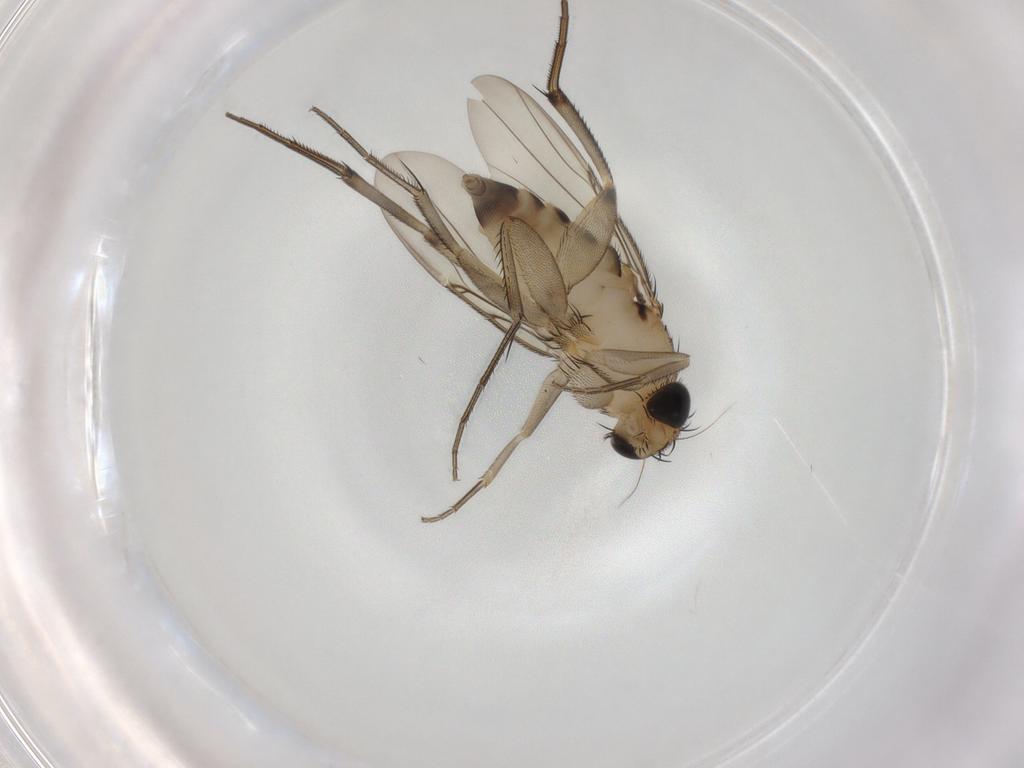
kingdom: Animalia
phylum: Arthropoda
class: Insecta
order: Diptera
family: Phoridae
